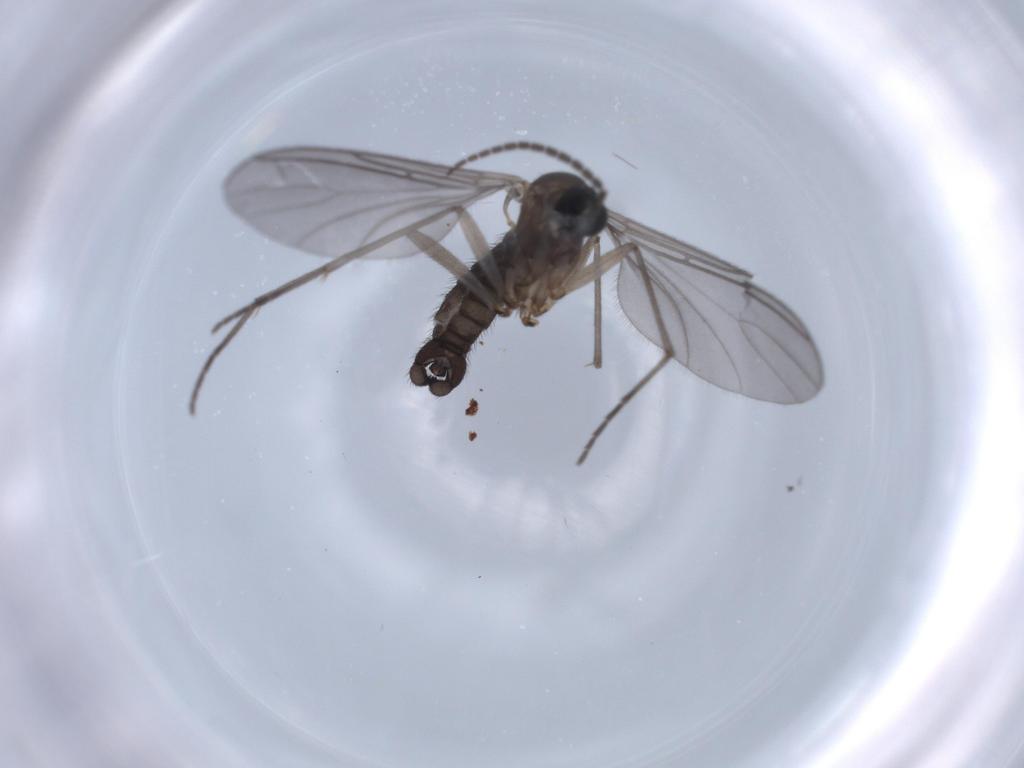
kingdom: Animalia
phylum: Arthropoda
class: Insecta
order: Diptera
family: Sciaridae
